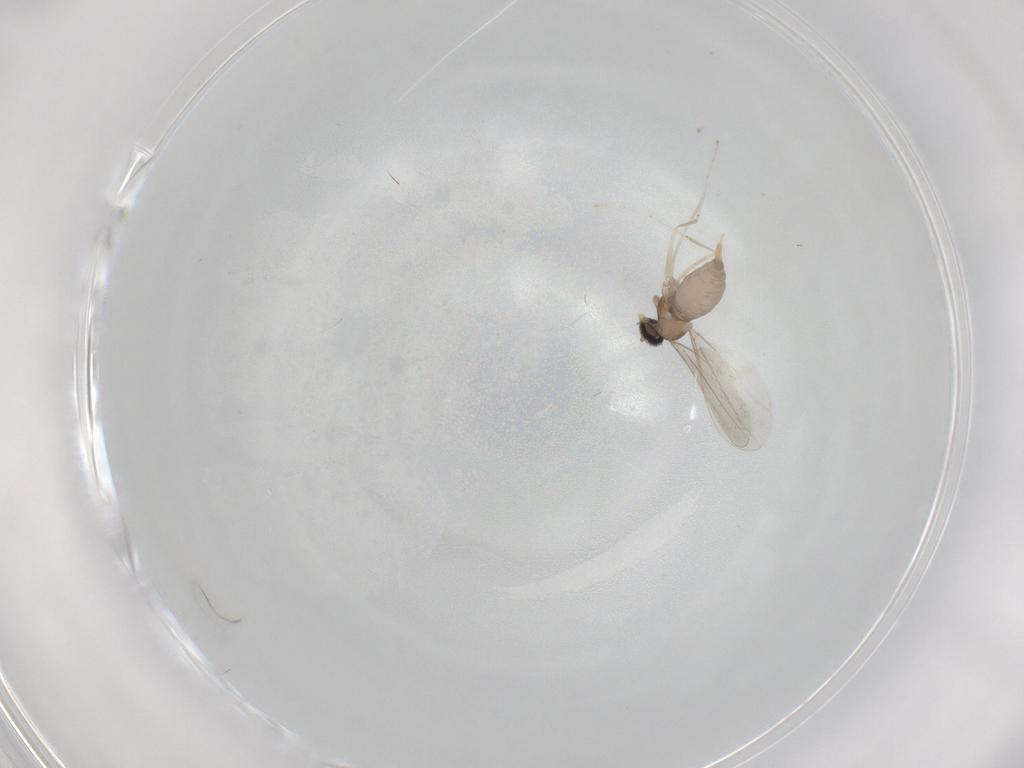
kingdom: Animalia
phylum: Arthropoda
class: Insecta
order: Diptera
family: Cecidomyiidae
